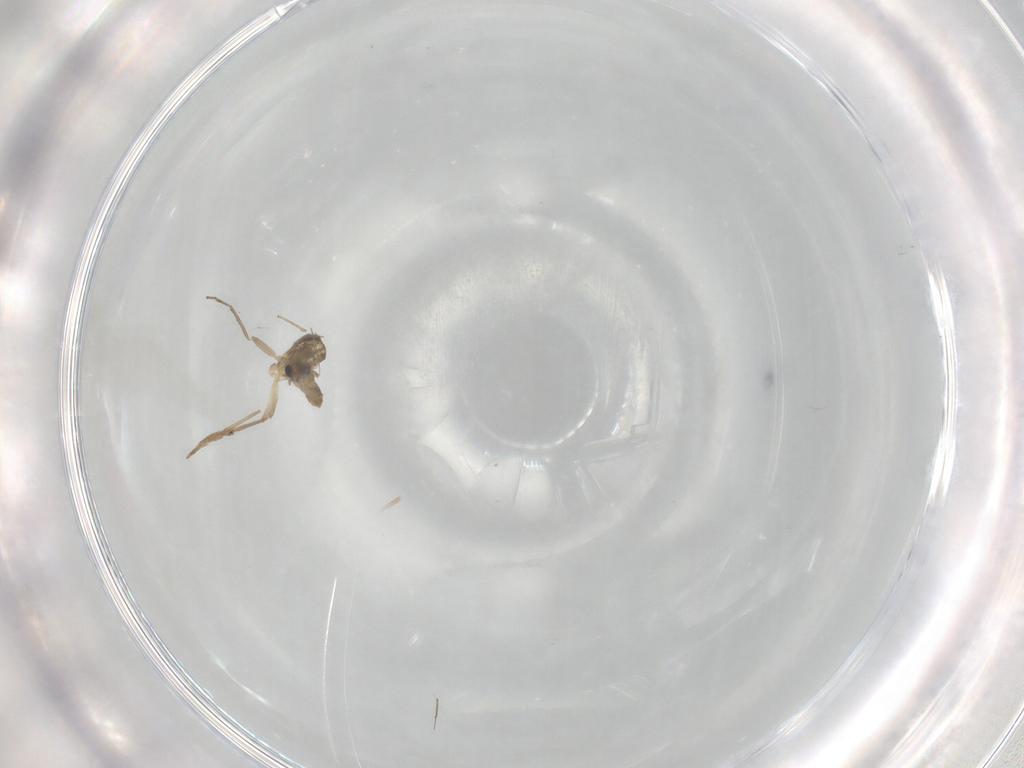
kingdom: Animalia
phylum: Arthropoda
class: Insecta
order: Diptera
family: Chironomidae
